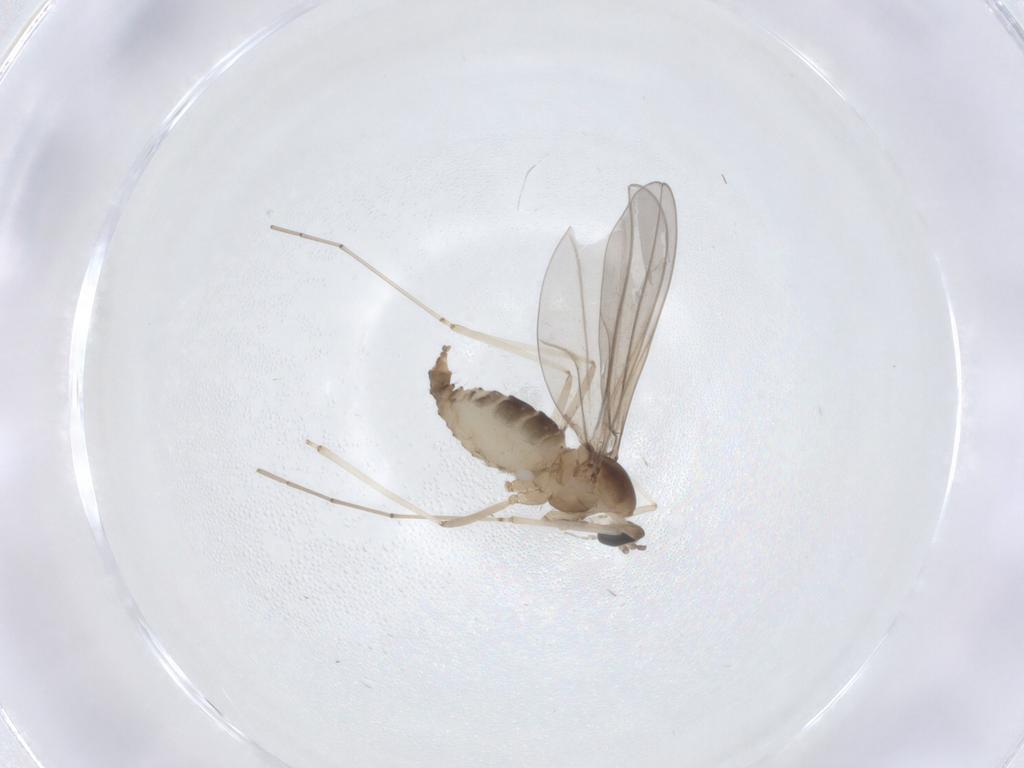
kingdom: Animalia
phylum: Arthropoda
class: Insecta
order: Diptera
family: Cecidomyiidae
